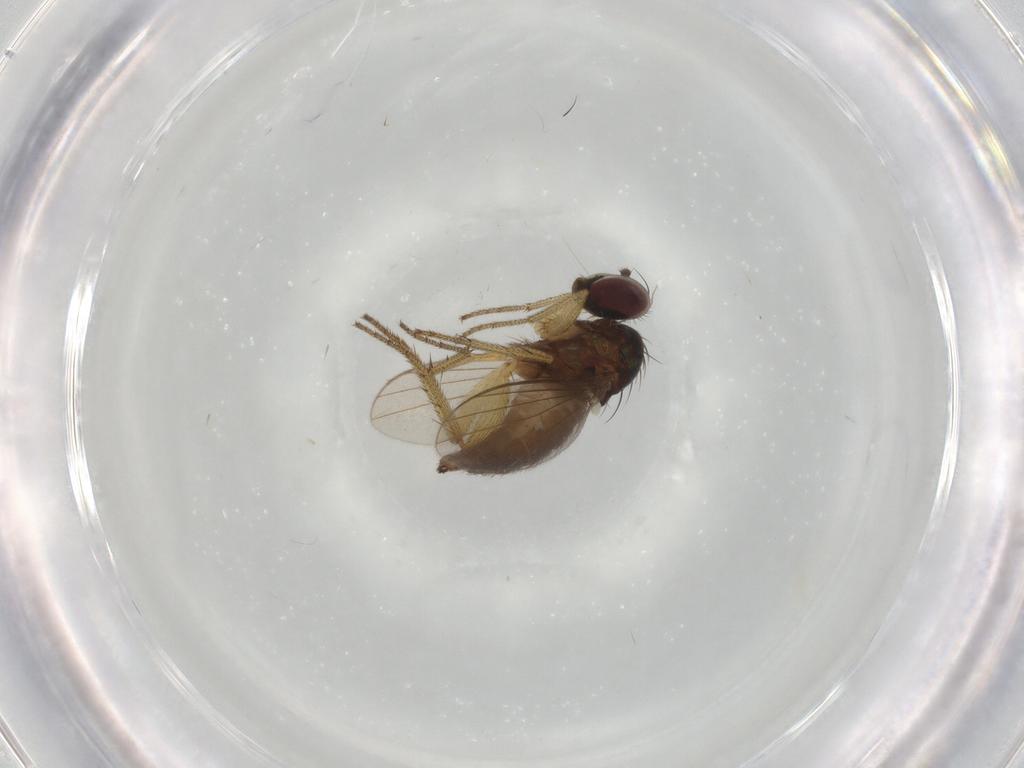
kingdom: Animalia
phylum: Arthropoda
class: Insecta
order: Diptera
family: Dolichopodidae
